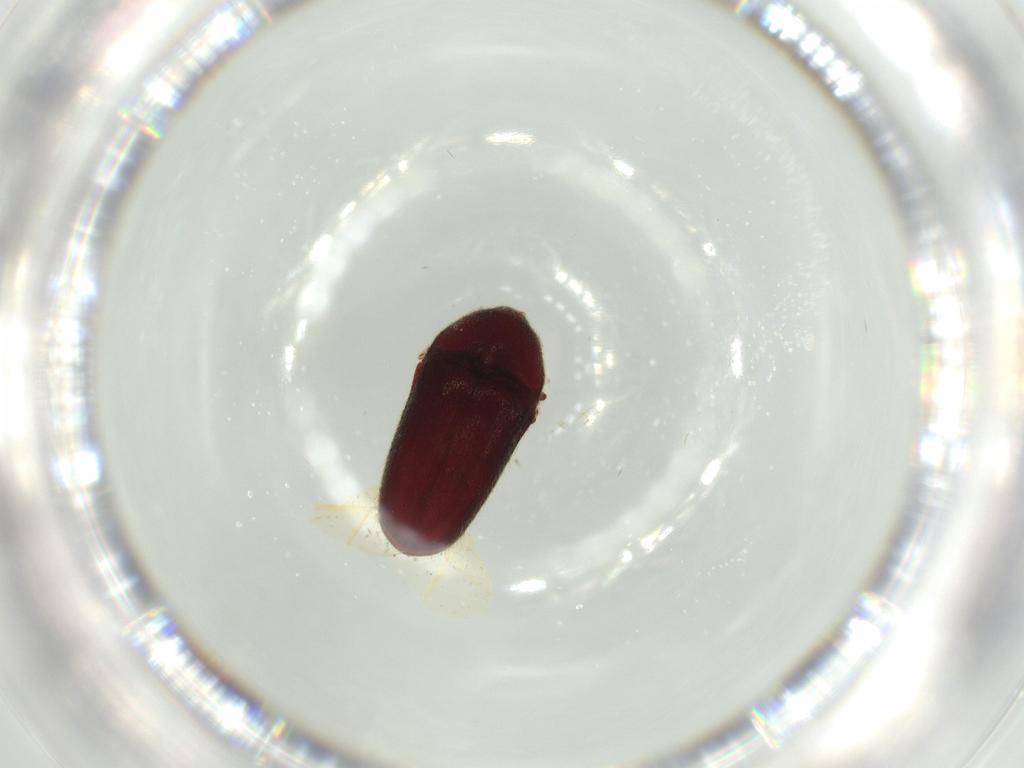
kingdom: Animalia
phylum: Arthropoda
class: Insecta
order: Coleoptera
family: Throscidae
